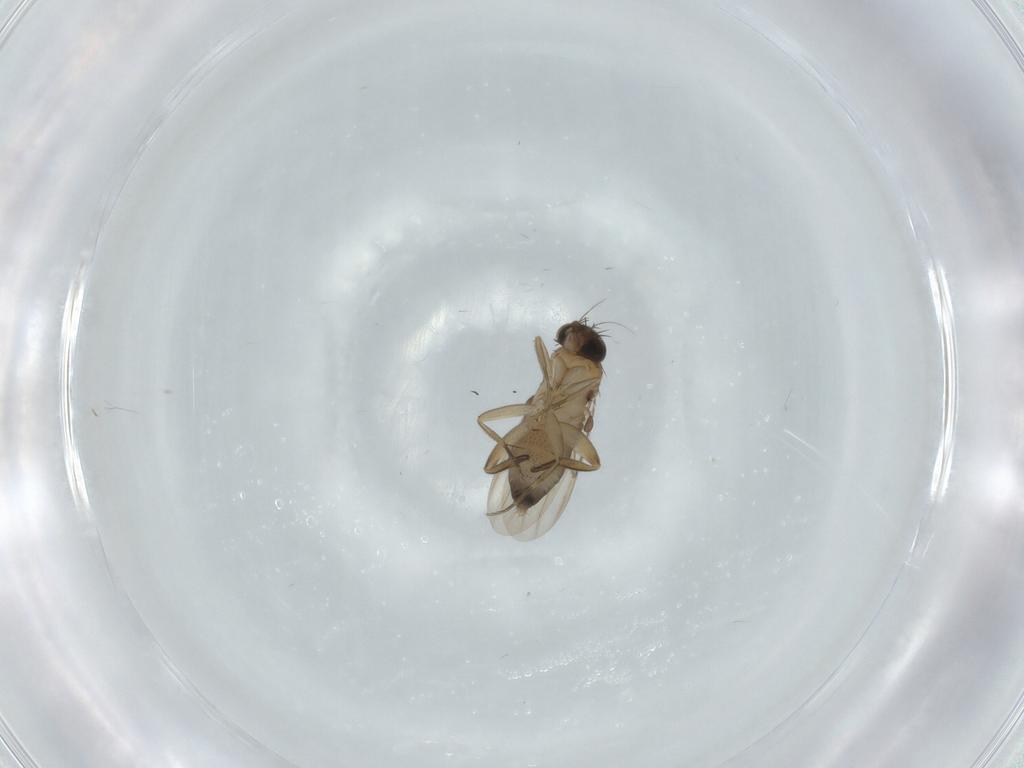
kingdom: Animalia
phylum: Arthropoda
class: Insecta
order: Diptera
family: Phoridae
